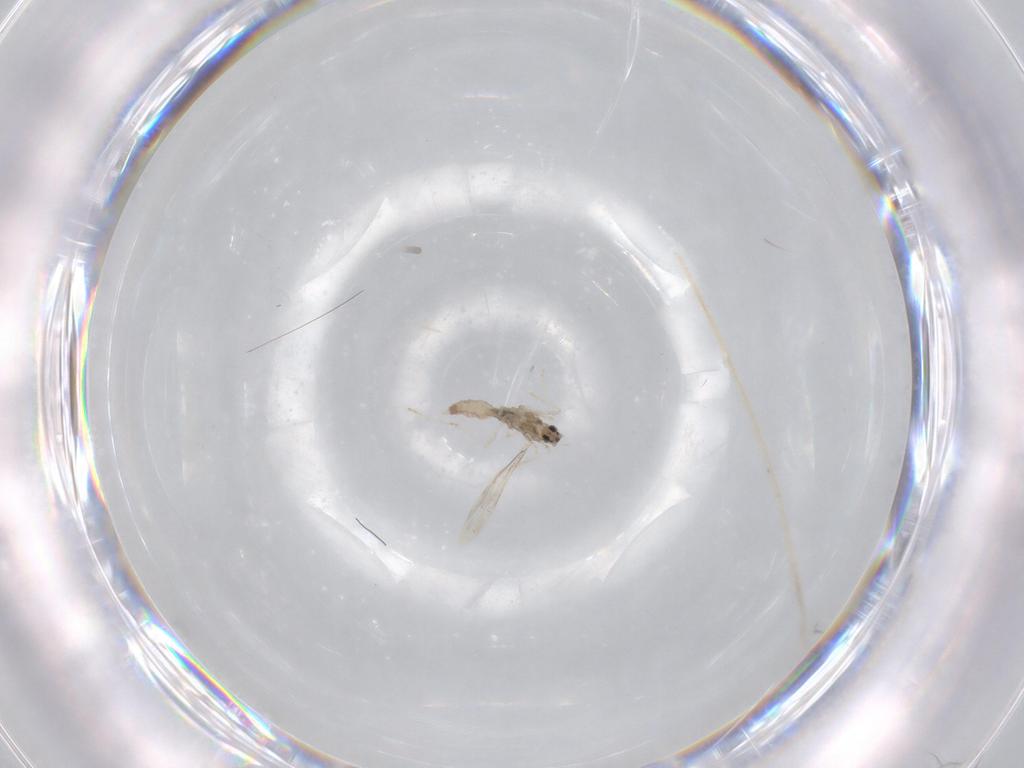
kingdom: Animalia
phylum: Arthropoda
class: Insecta
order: Diptera
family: Cecidomyiidae
